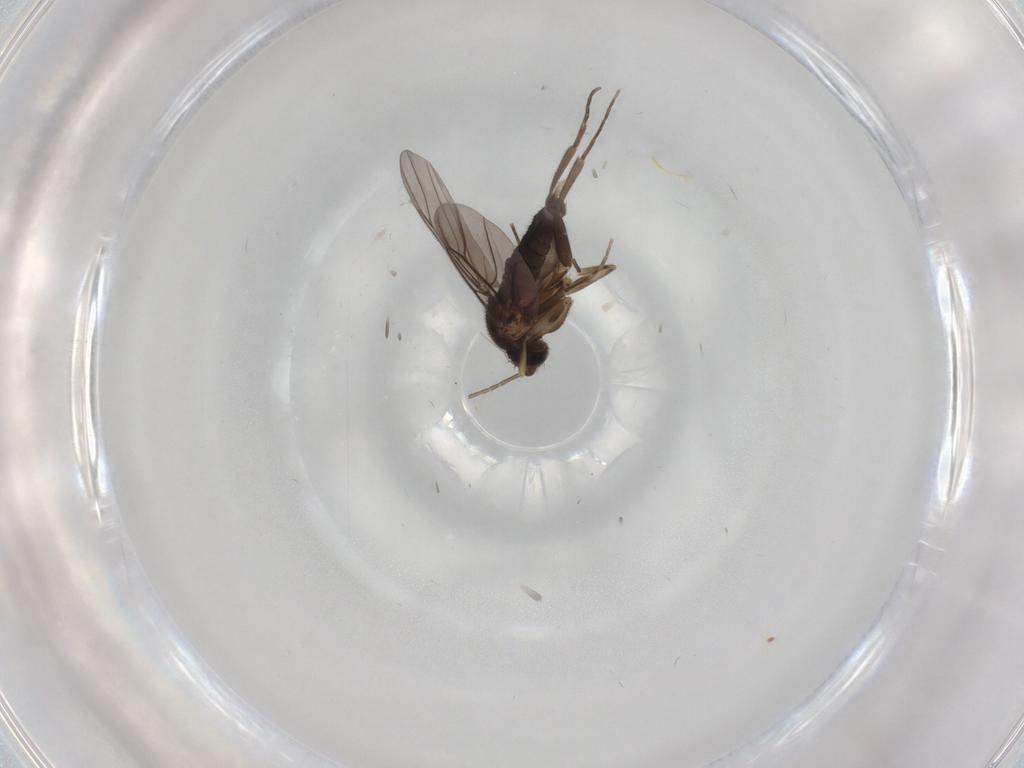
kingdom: Animalia
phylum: Arthropoda
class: Insecta
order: Diptera
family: Phoridae
